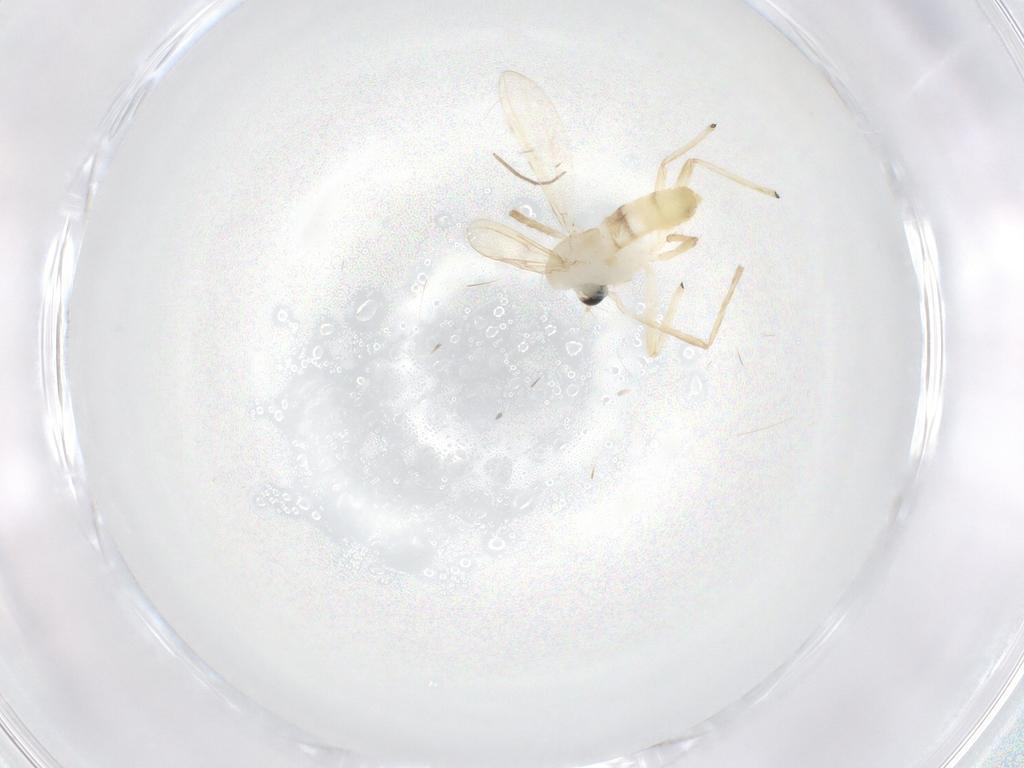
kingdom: Animalia
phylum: Arthropoda
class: Insecta
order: Diptera
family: Chironomidae
